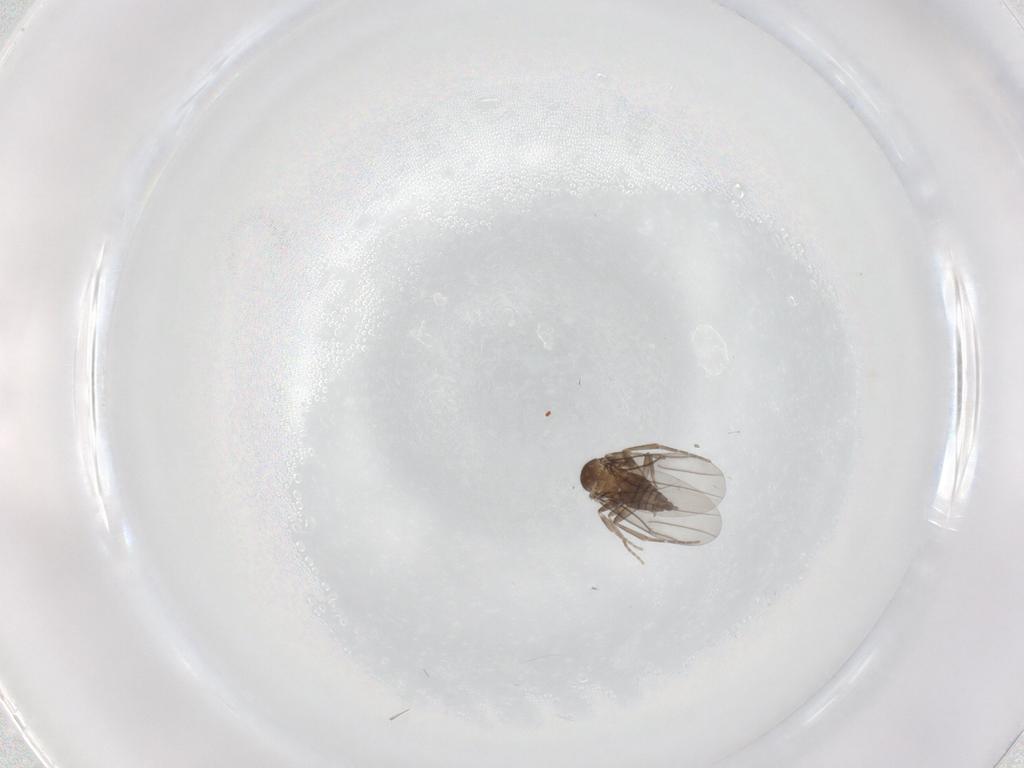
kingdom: Animalia
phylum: Arthropoda
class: Insecta
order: Diptera
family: Phoridae
